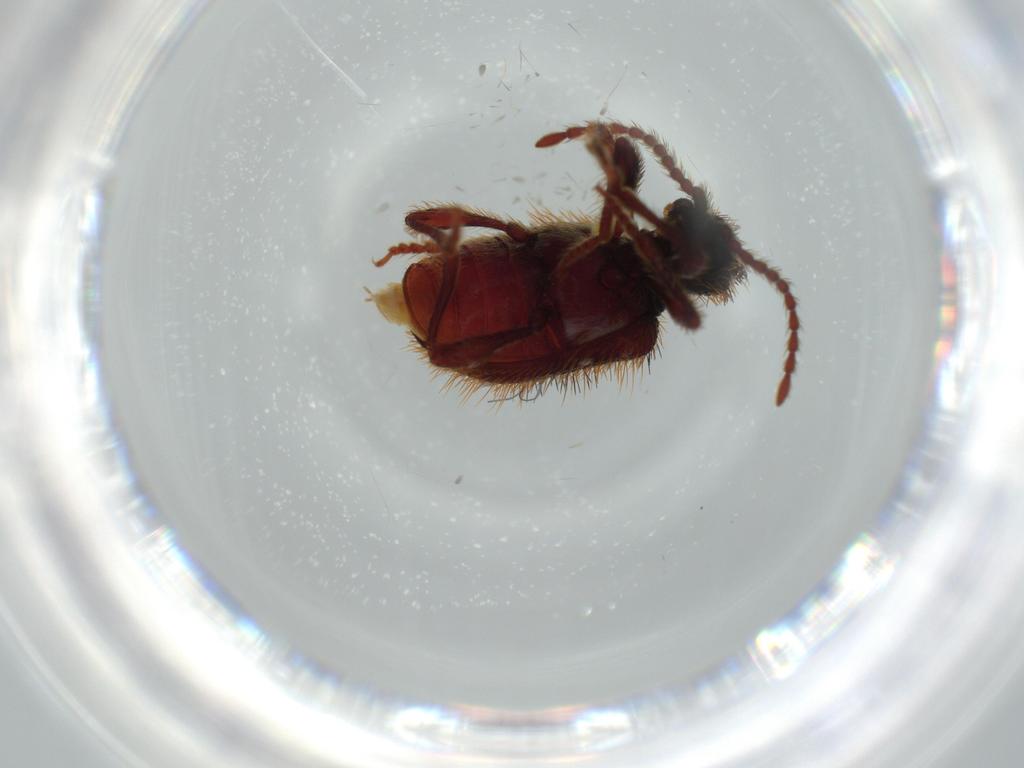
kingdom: Animalia
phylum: Arthropoda
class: Insecta
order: Coleoptera
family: Ptinidae
